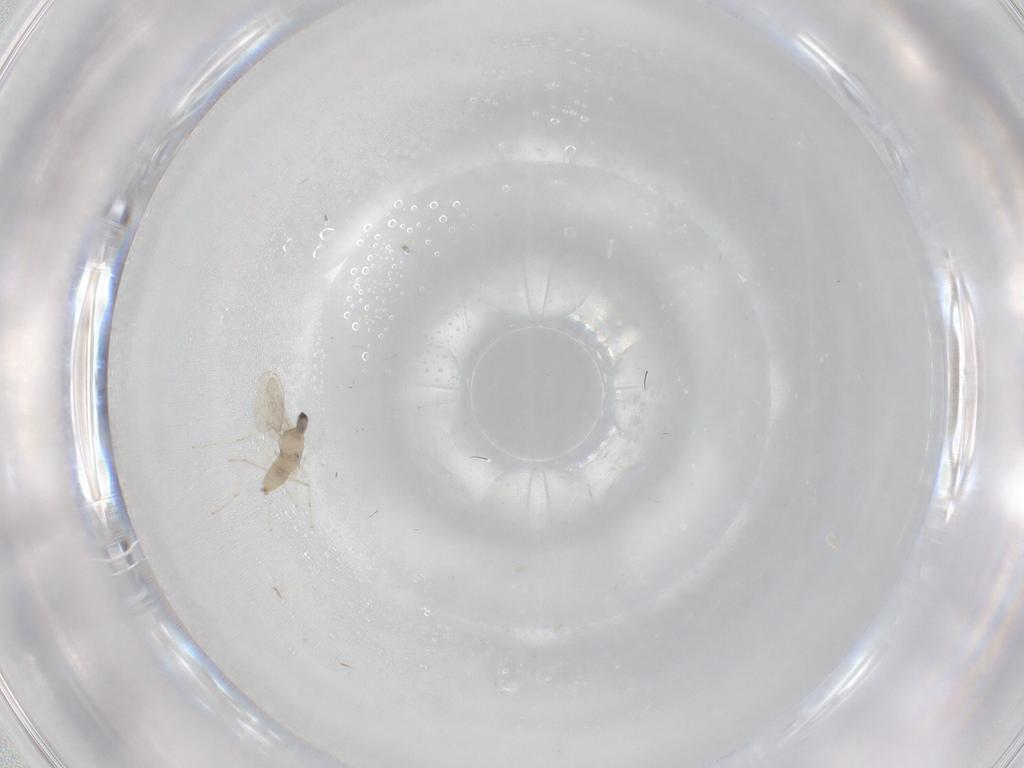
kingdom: Animalia
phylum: Arthropoda
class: Insecta
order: Diptera
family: Cecidomyiidae
